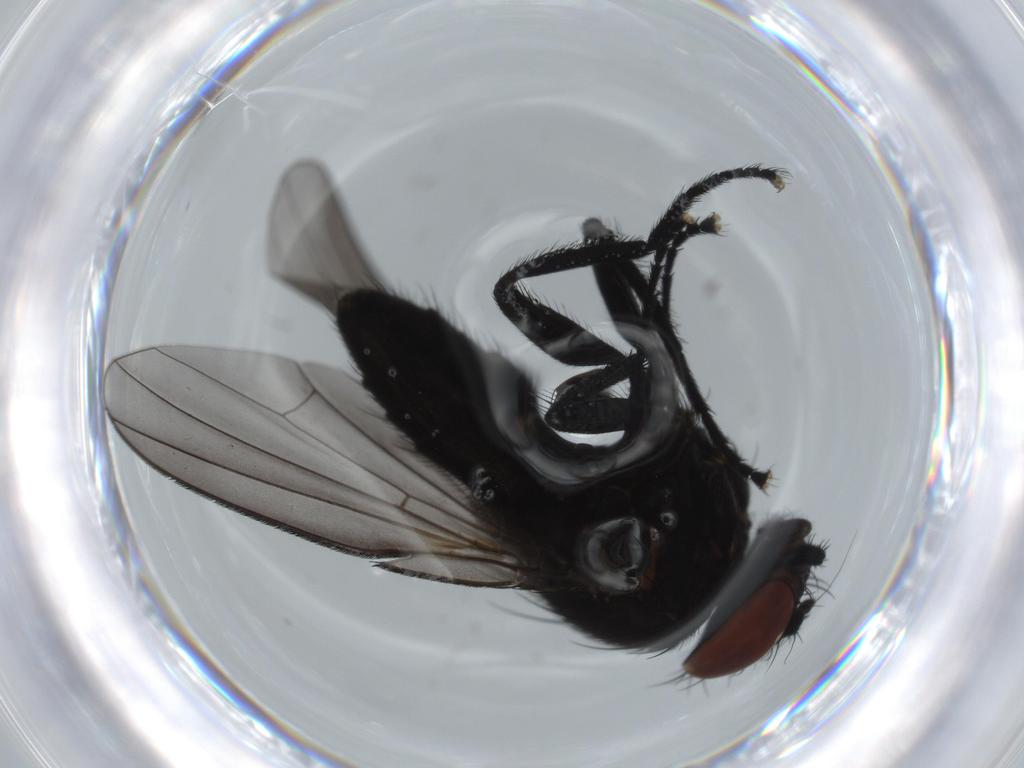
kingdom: Animalia
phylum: Arthropoda
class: Insecta
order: Diptera
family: Milichiidae
